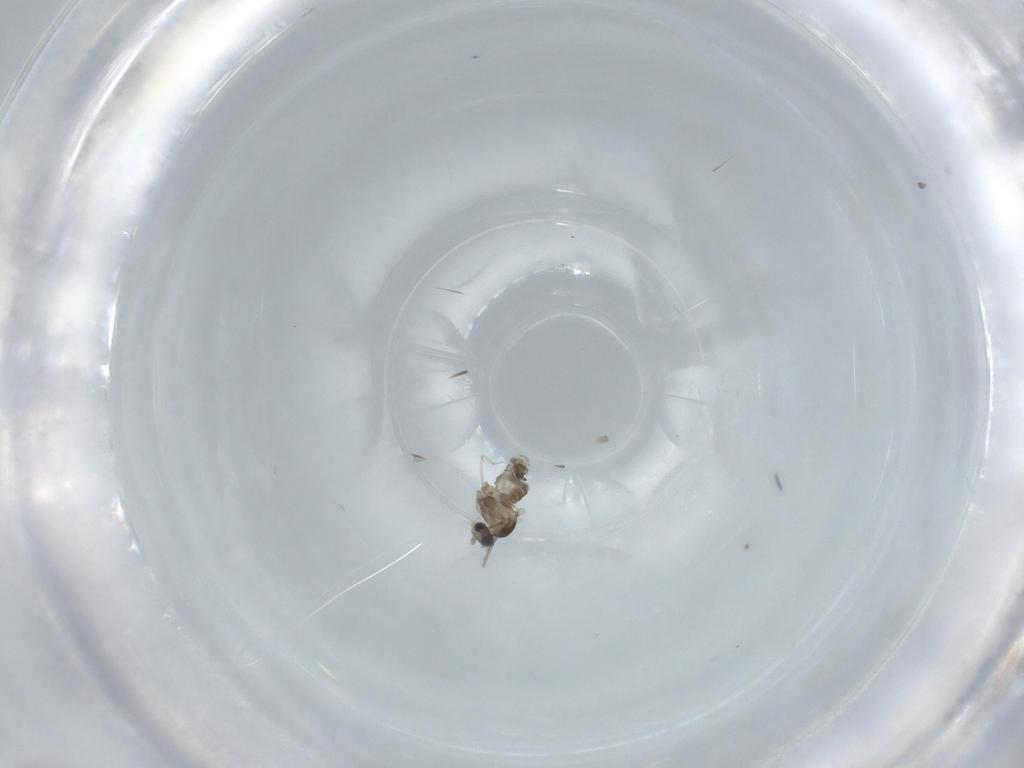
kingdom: Animalia
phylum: Arthropoda
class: Insecta
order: Diptera
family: Cecidomyiidae
